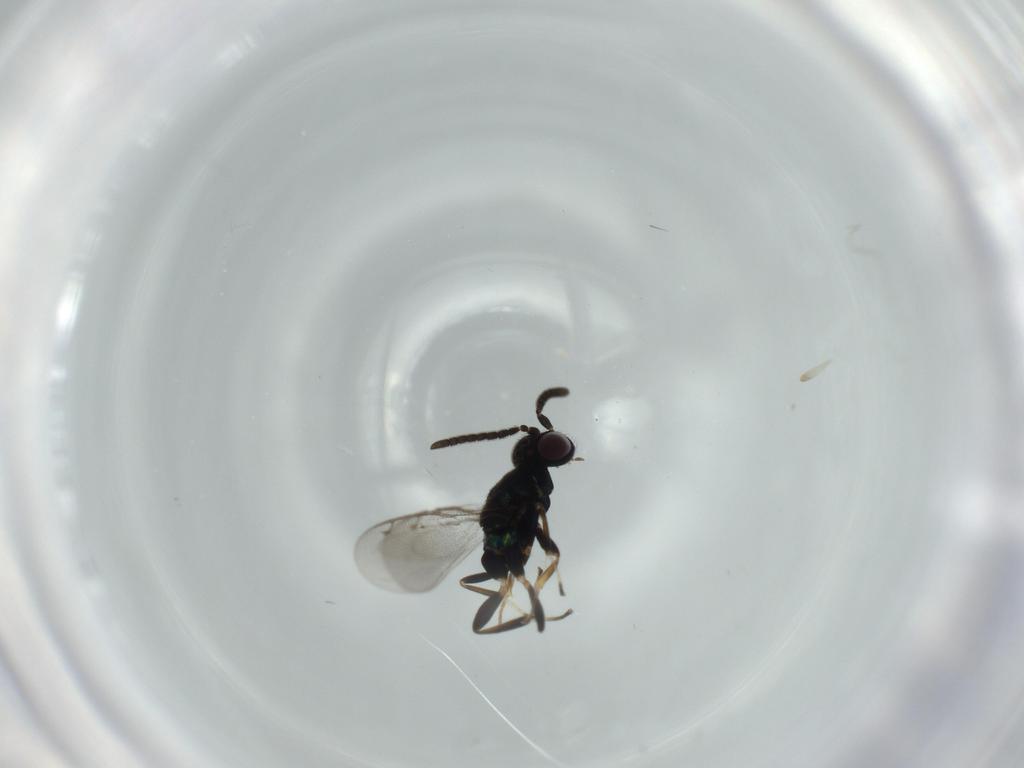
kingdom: Animalia
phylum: Arthropoda
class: Insecta
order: Hymenoptera
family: Eupelmidae
